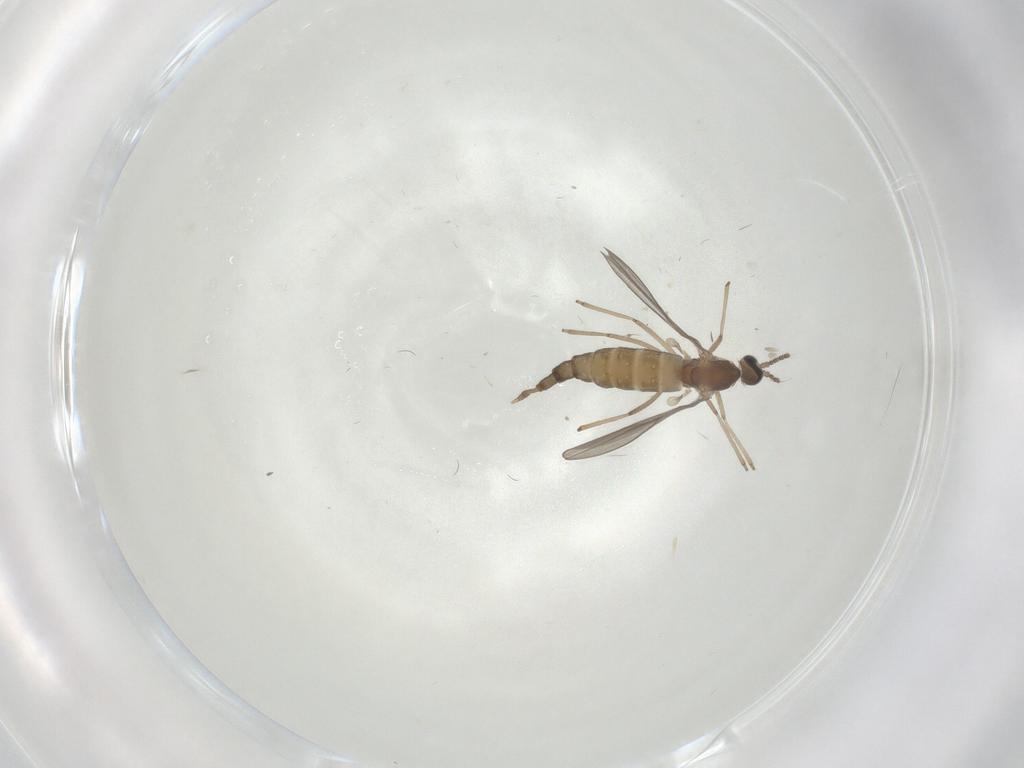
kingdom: Animalia
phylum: Arthropoda
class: Insecta
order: Diptera
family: Cecidomyiidae
